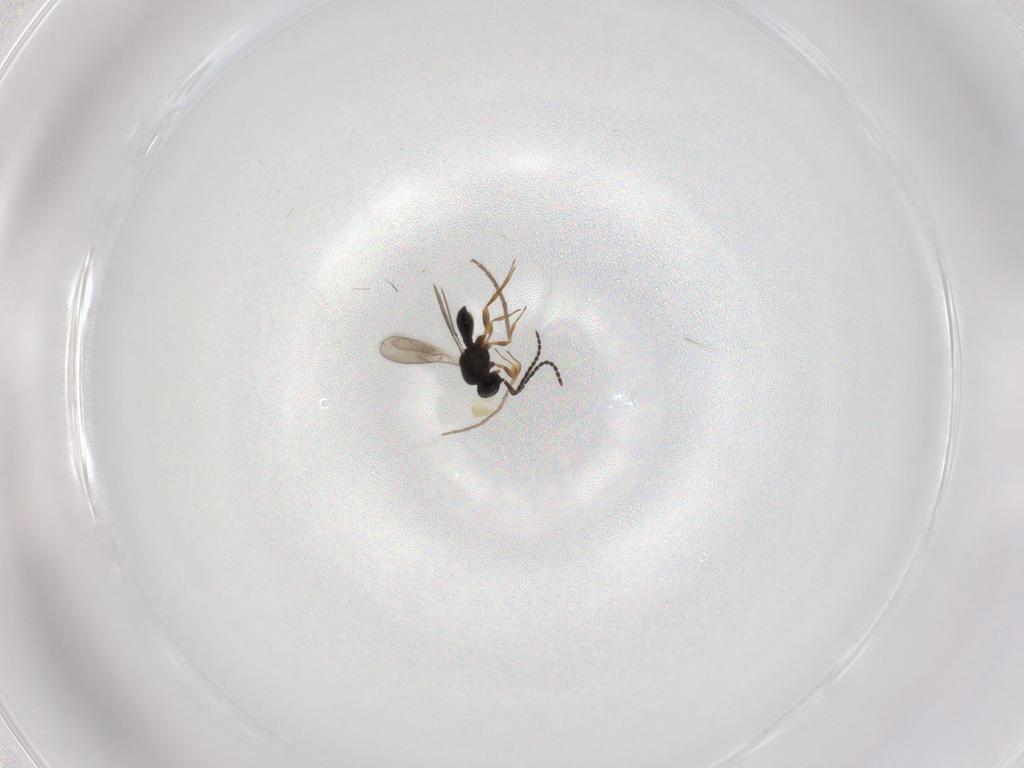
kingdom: Animalia
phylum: Arthropoda
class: Insecta
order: Hymenoptera
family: Scelionidae
